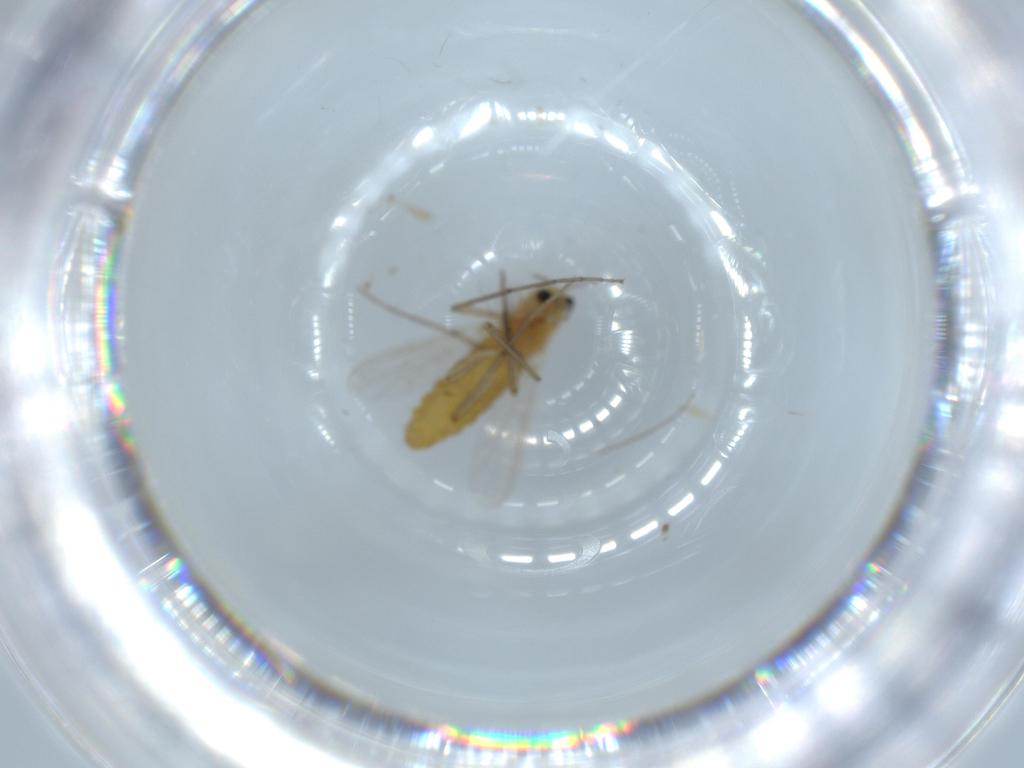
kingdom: Animalia
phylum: Arthropoda
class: Insecta
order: Diptera
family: Chironomidae
